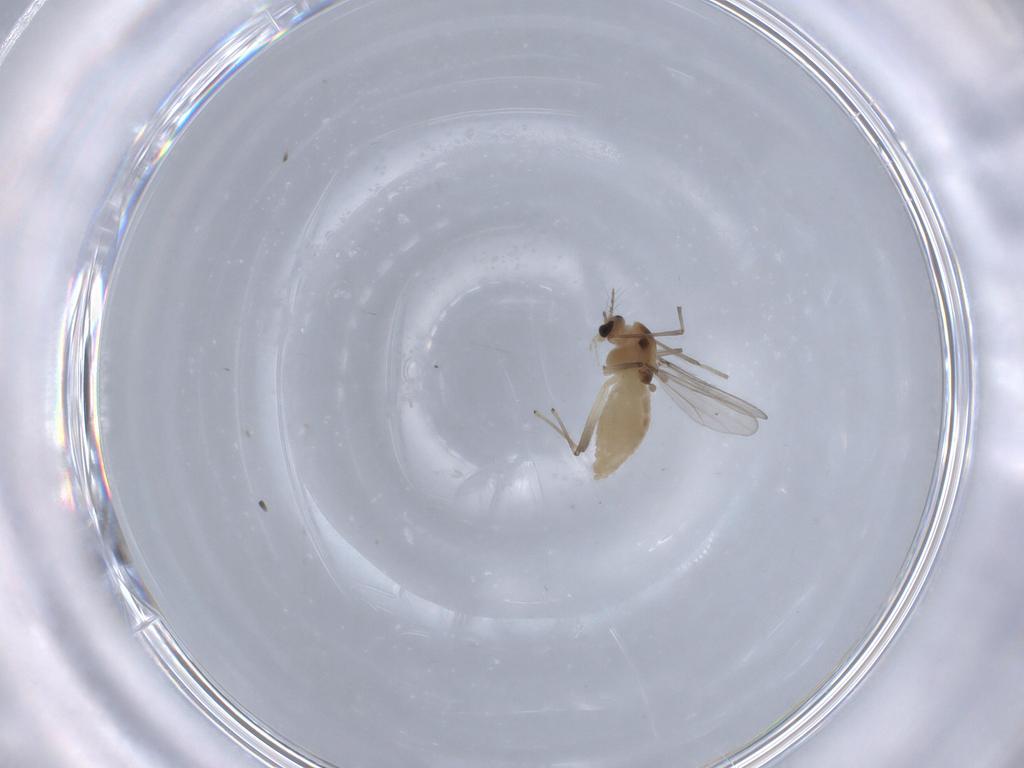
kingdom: Animalia
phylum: Arthropoda
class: Insecta
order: Diptera
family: Chironomidae
